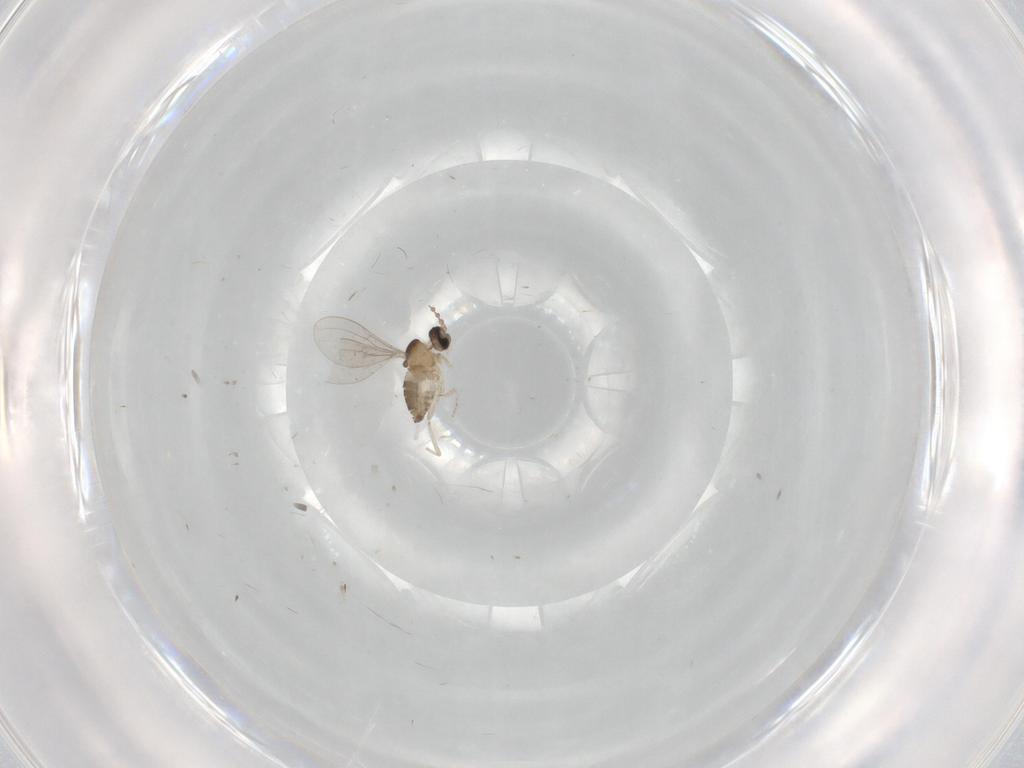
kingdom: Animalia
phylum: Arthropoda
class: Insecta
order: Diptera
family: Cecidomyiidae
